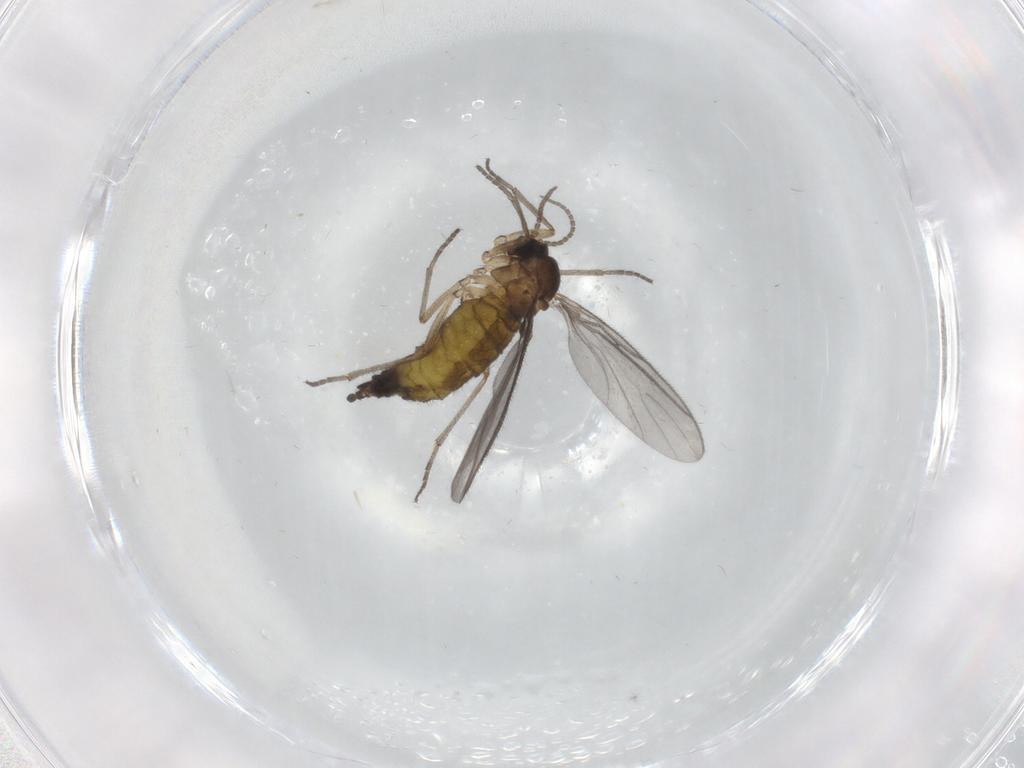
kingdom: Animalia
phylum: Arthropoda
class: Insecta
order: Diptera
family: Sciaridae
